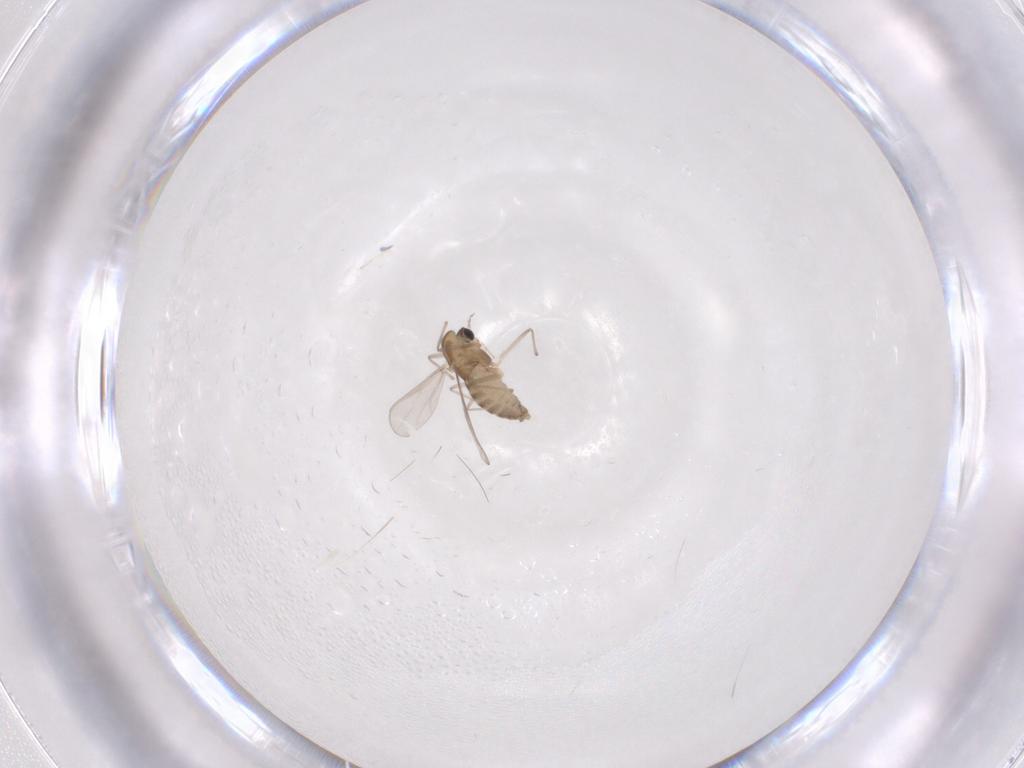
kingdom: Animalia
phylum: Arthropoda
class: Insecta
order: Diptera
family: Chironomidae
